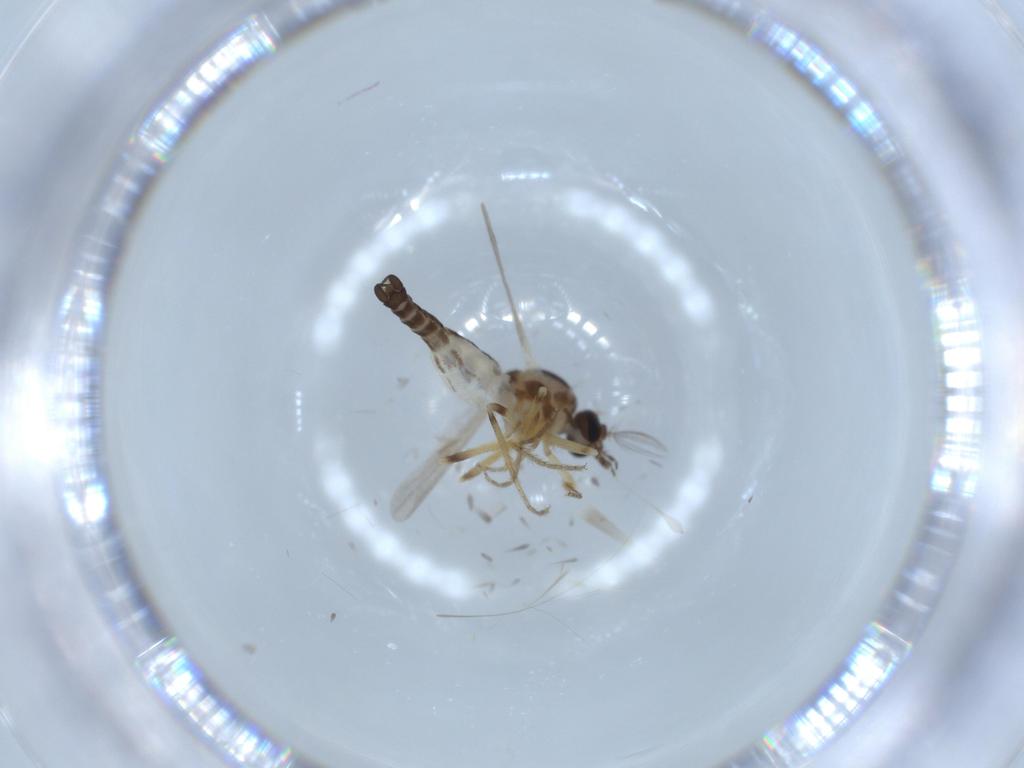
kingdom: Animalia
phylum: Arthropoda
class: Insecta
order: Diptera
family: Ceratopogonidae
